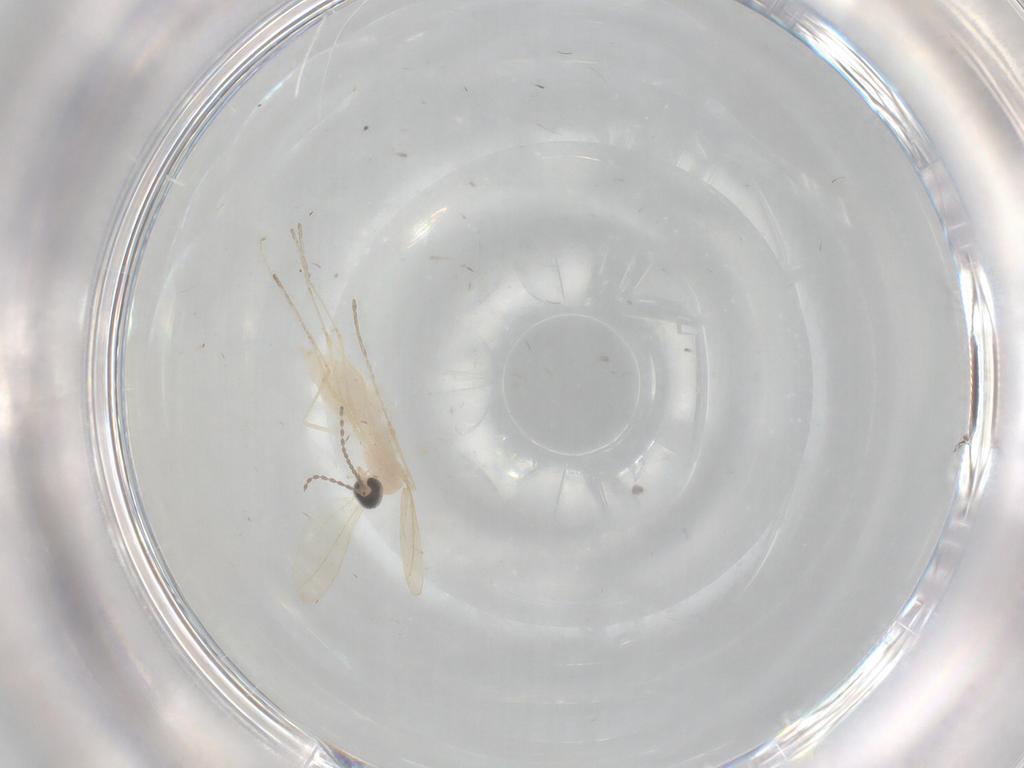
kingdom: Animalia
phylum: Arthropoda
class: Insecta
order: Diptera
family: Cecidomyiidae
